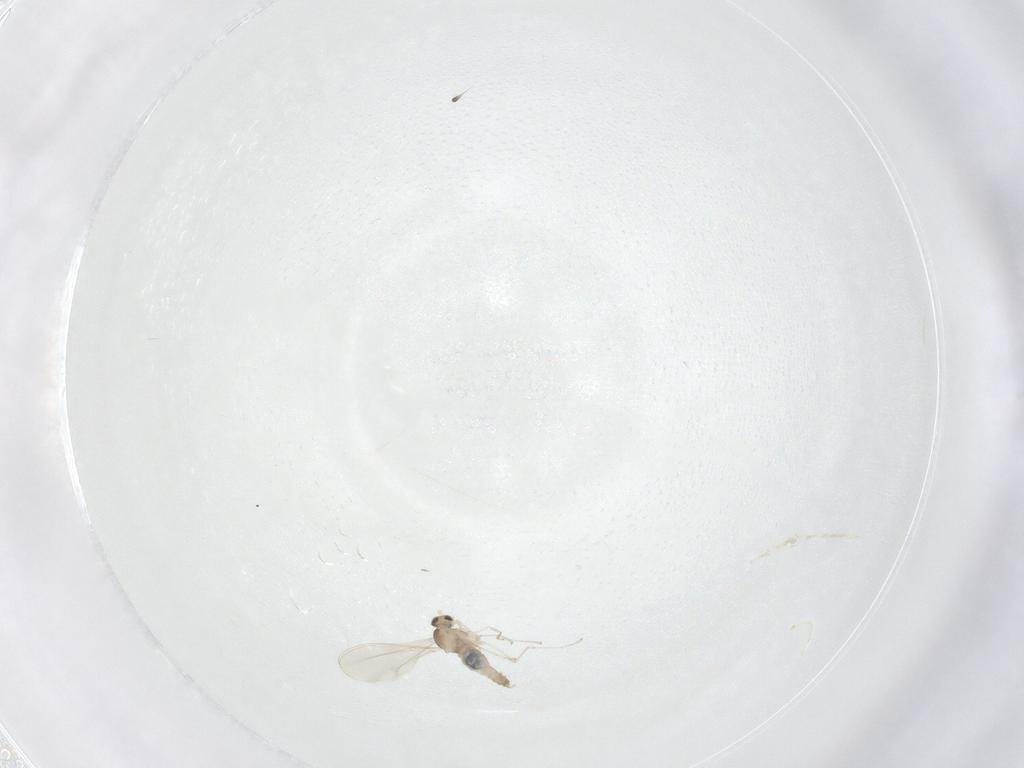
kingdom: Animalia
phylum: Arthropoda
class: Insecta
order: Diptera
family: Cecidomyiidae
